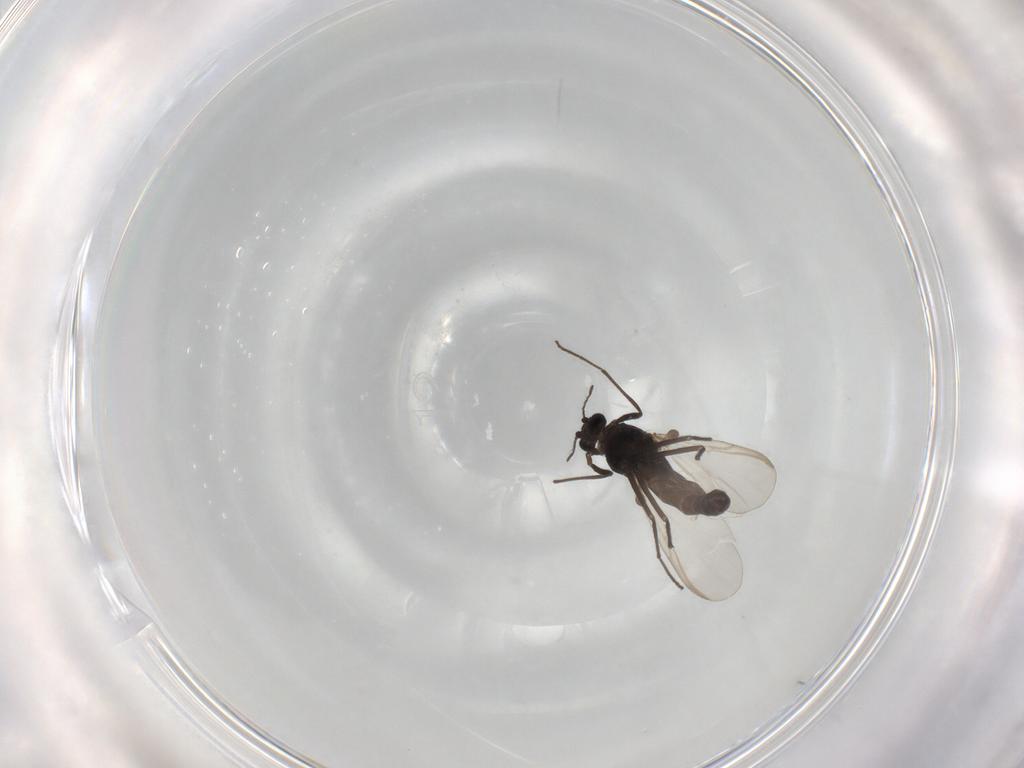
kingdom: Animalia
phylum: Arthropoda
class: Insecta
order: Diptera
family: Chironomidae
